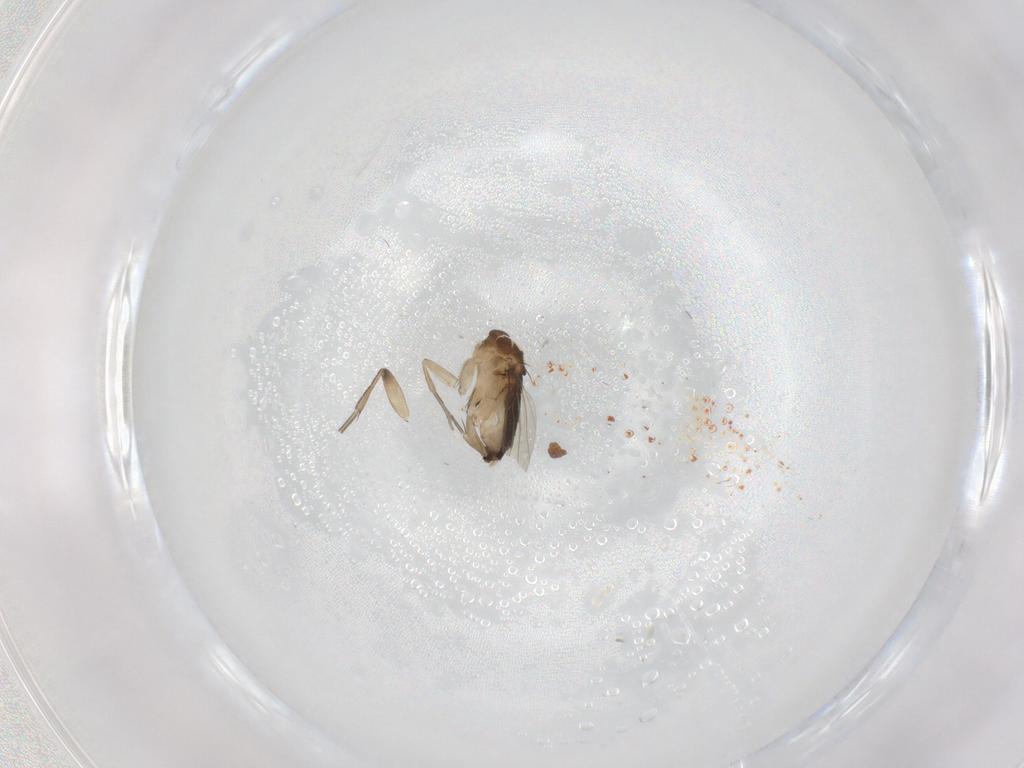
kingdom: Animalia
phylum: Arthropoda
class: Insecta
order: Diptera
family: Phoridae
